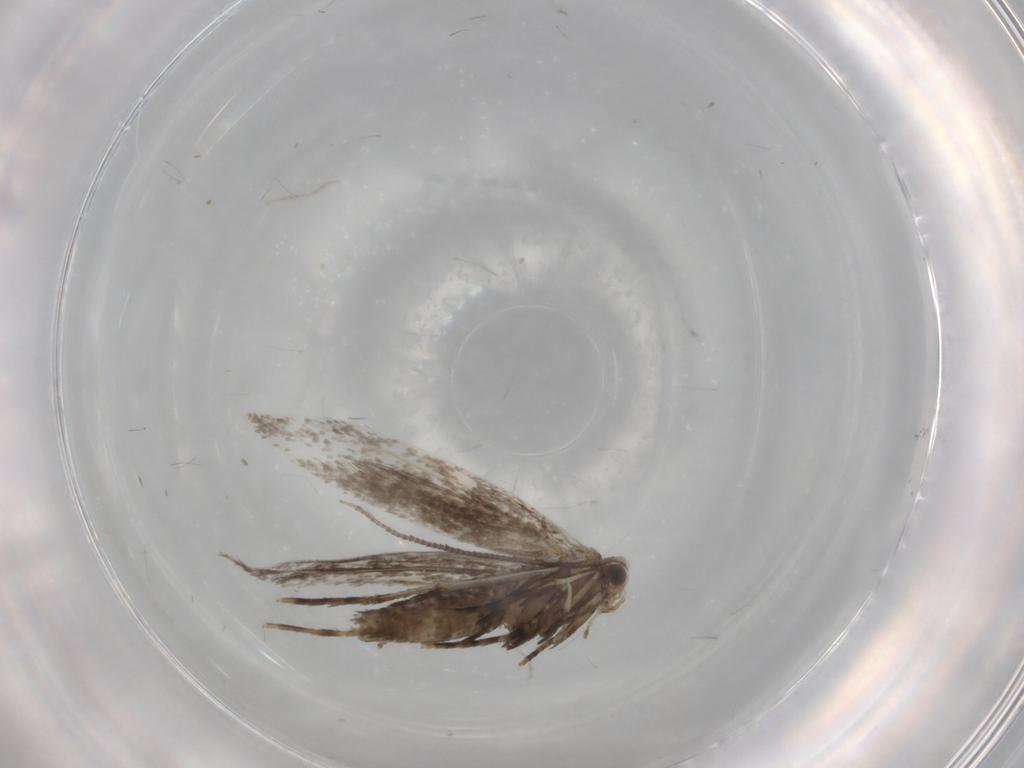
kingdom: Animalia
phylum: Arthropoda
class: Insecta
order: Lepidoptera
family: Tineidae
